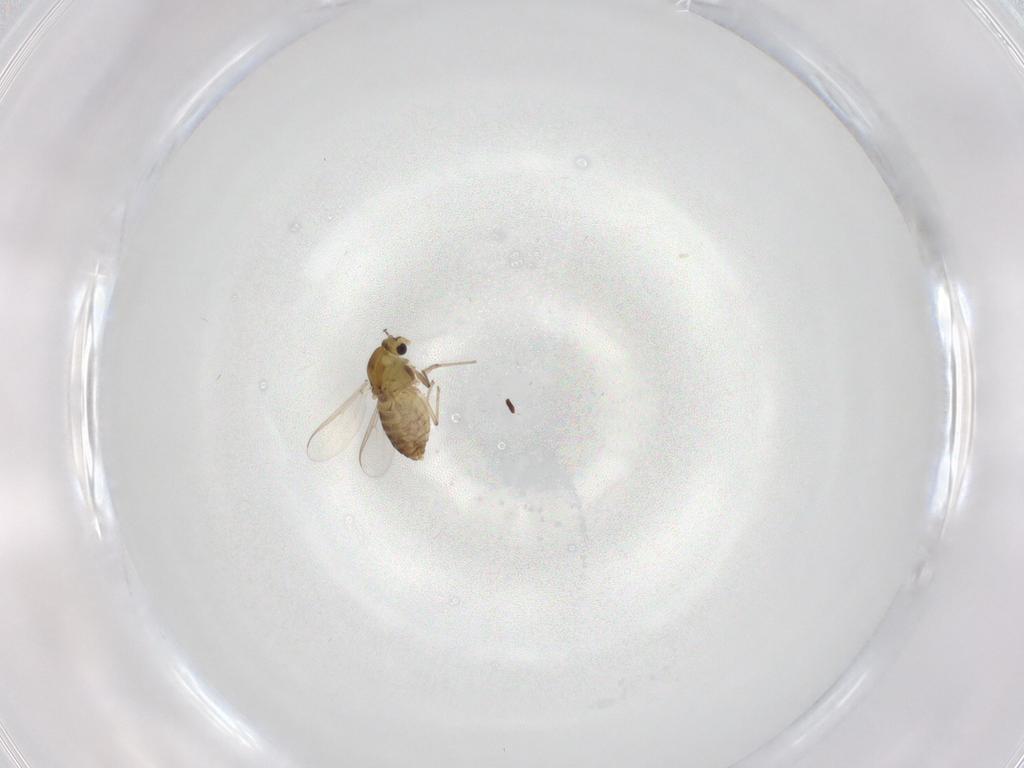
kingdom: Animalia
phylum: Arthropoda
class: Insecta
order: Diptera
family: Chironomidae
